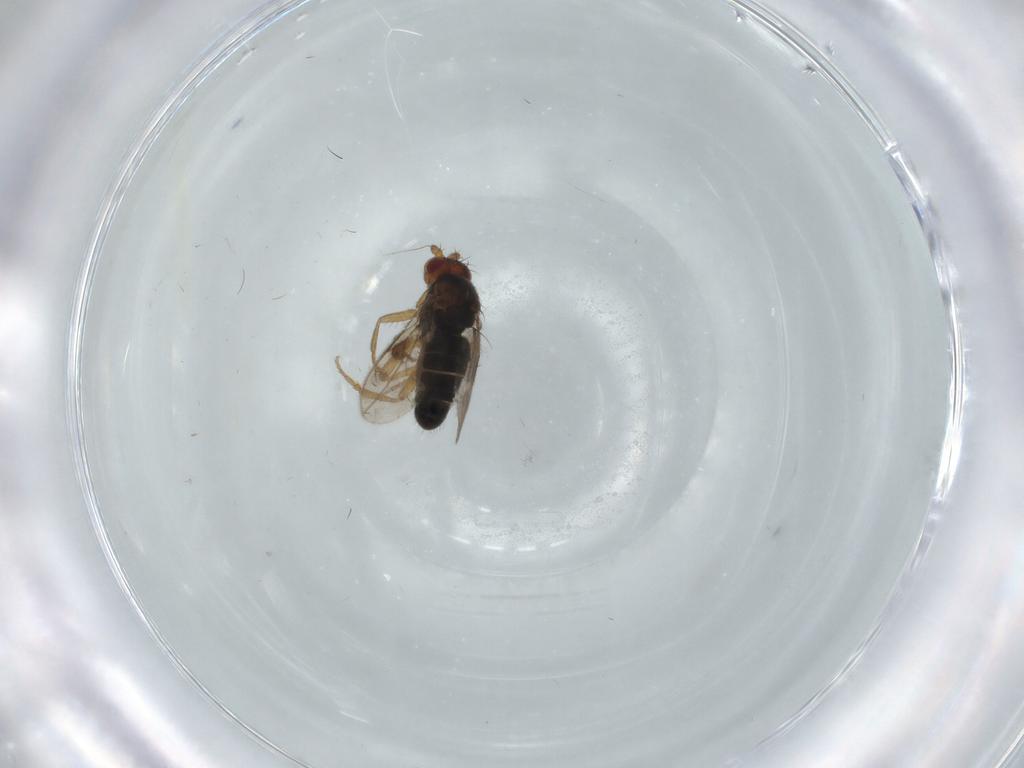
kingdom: Animalia
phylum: Arthropoda
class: Insecta
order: Diptera
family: Sphaeroceridae
